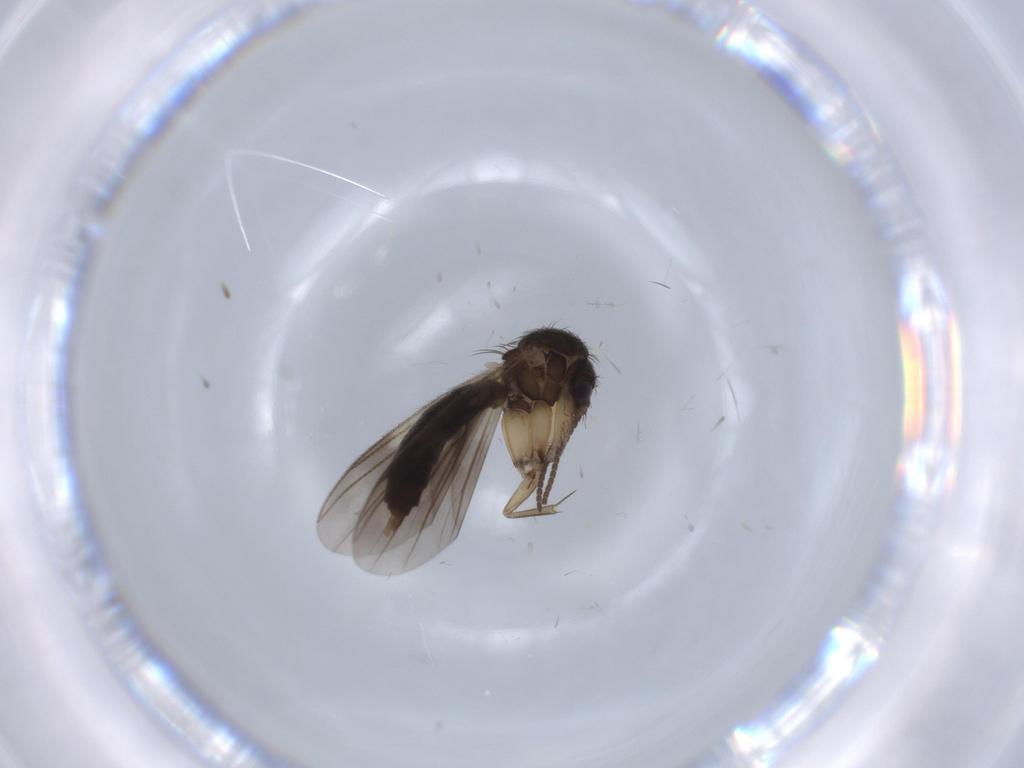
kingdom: Animalia
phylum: Arthropoda
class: Insecta
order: Diptera
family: Dolichopodidae
